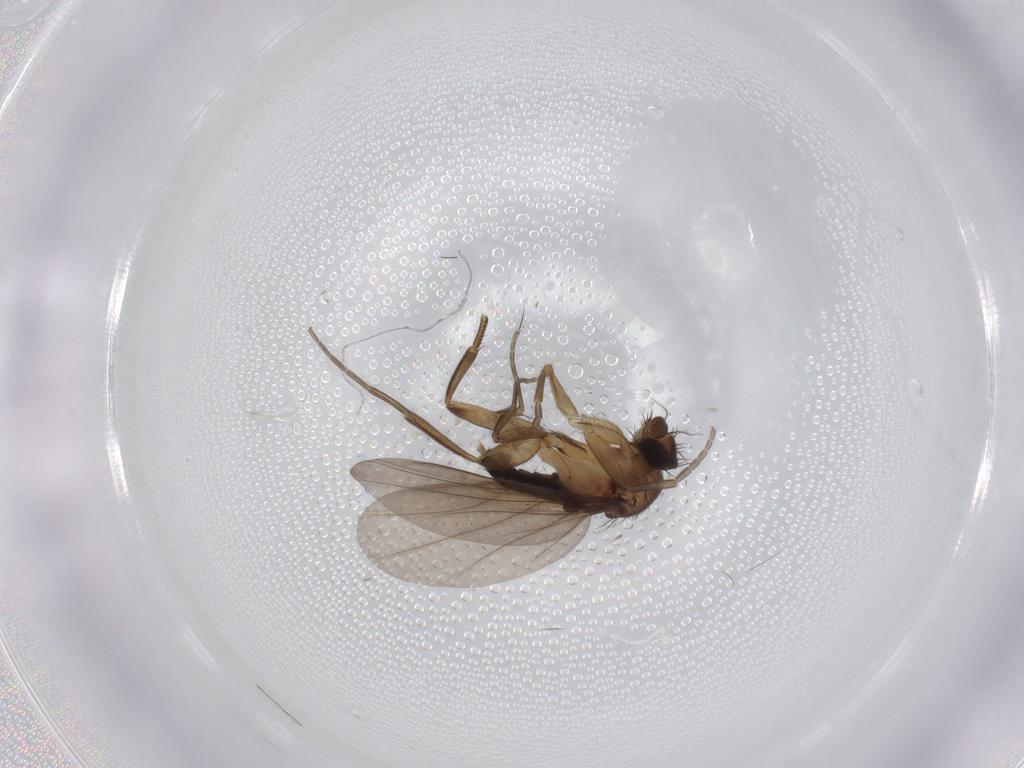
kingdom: Animalia
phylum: Arthropoda
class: Insecta
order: Diptera
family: Phoridae
